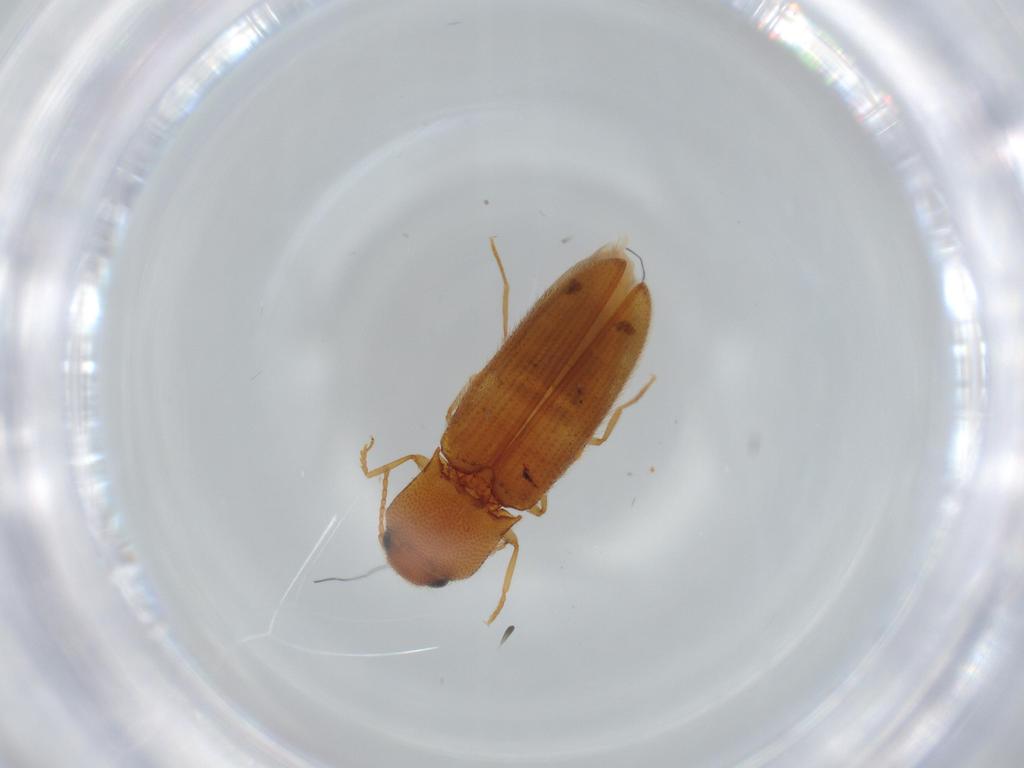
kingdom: Animalia
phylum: Arthropoda
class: Insecta
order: Coleoptera
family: Elateridae
